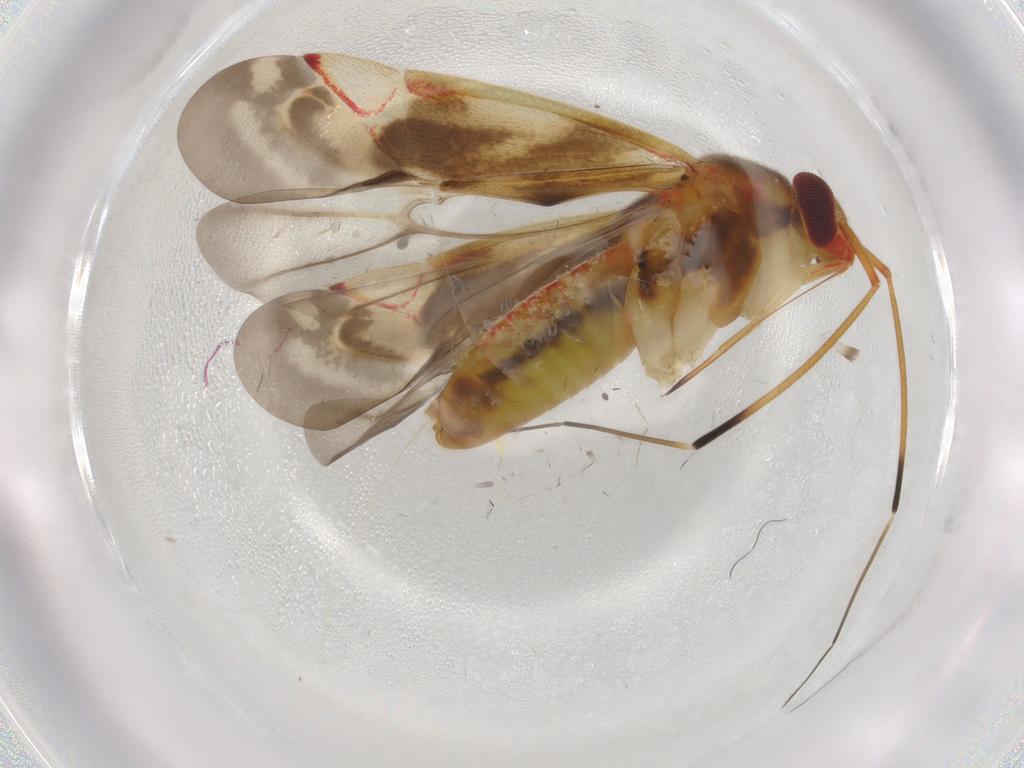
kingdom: Animalia
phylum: Arthropoda
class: Insecta
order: Hemiptera
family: Miridae
